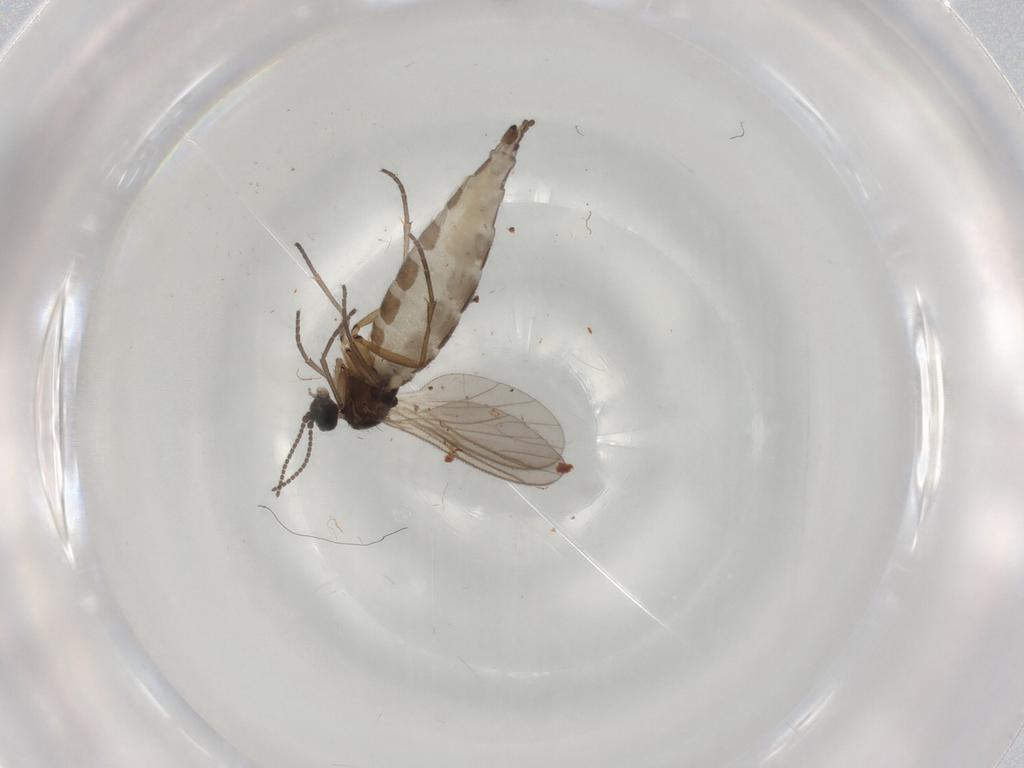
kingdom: Animalia
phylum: Arthropoda
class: Insecta
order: Diptera
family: Sciaridae
